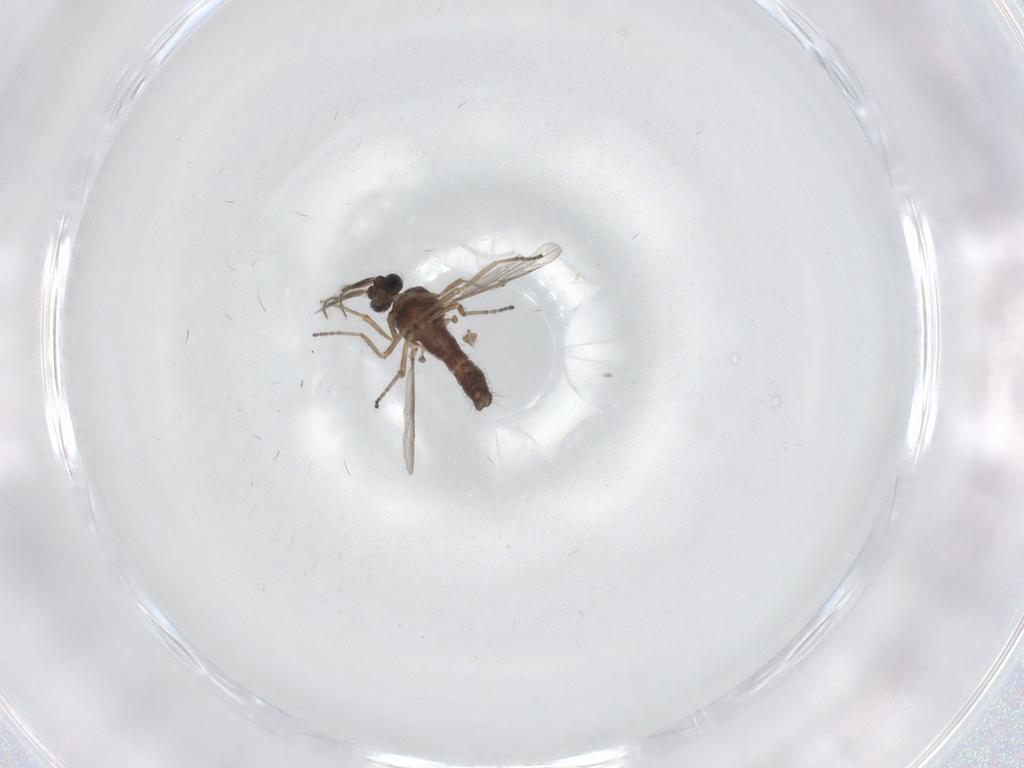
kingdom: Animalia
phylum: Arthropoda
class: Insecta
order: Diptera
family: Ceratopogonidae
